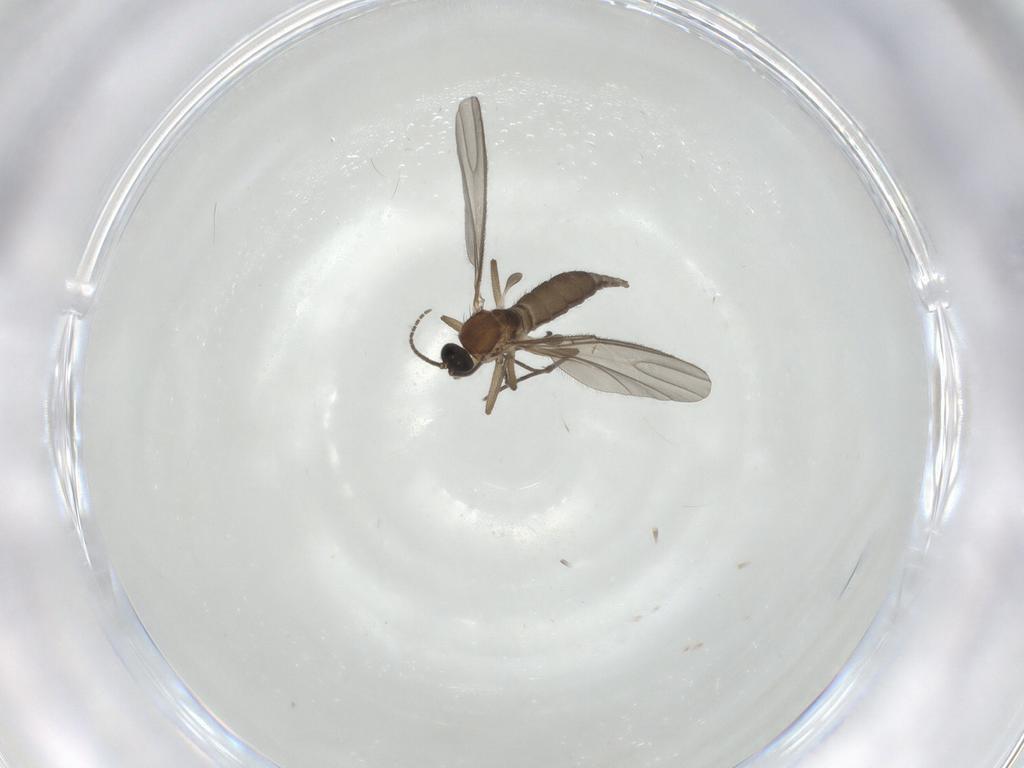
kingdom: Animalia
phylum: Arthropoda
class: Insecta
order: Diptera
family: Sciaridae
